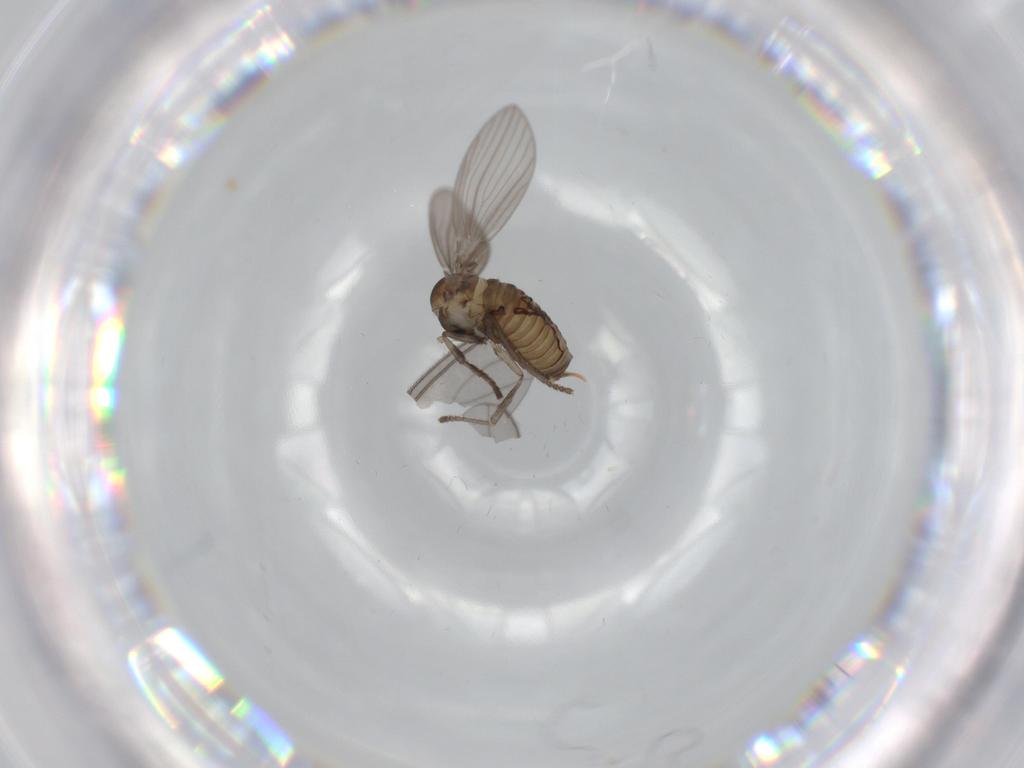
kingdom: Animalia
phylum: Arthropoda
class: Insecta
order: Diptera
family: Psychodidae
